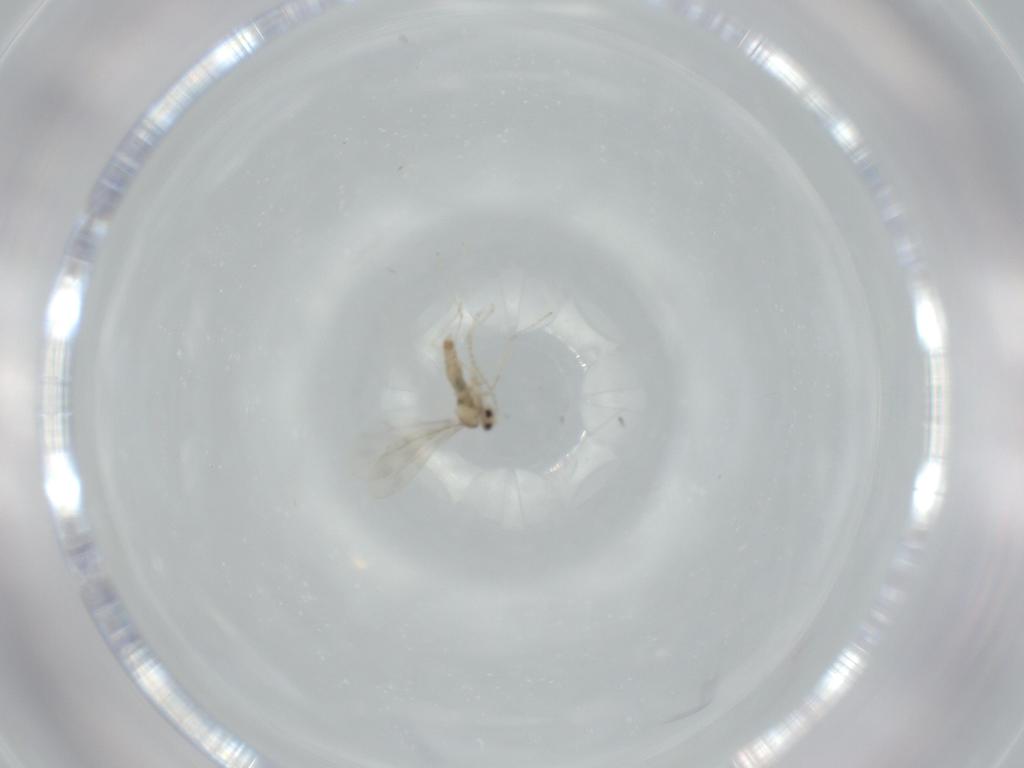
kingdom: Animalia
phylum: Arthropoda
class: Insecta
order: Diptera
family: Cecidomyiidae
